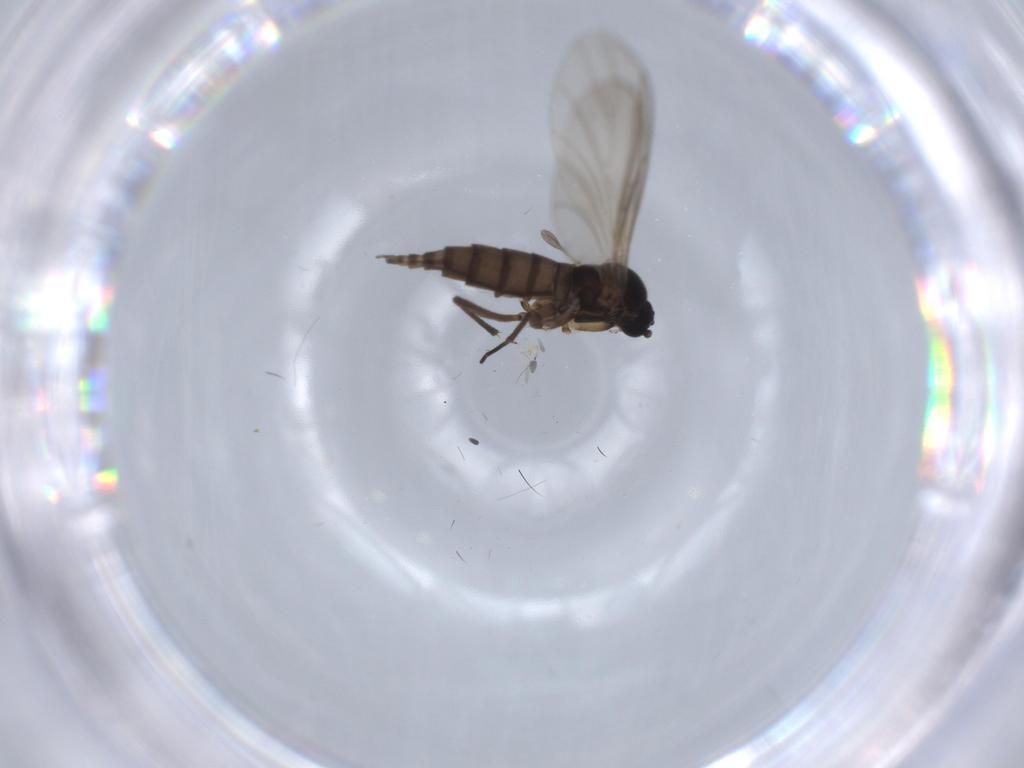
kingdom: Animalia
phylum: Arthropoda
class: Insecta
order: Diptera
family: Sciaridae
